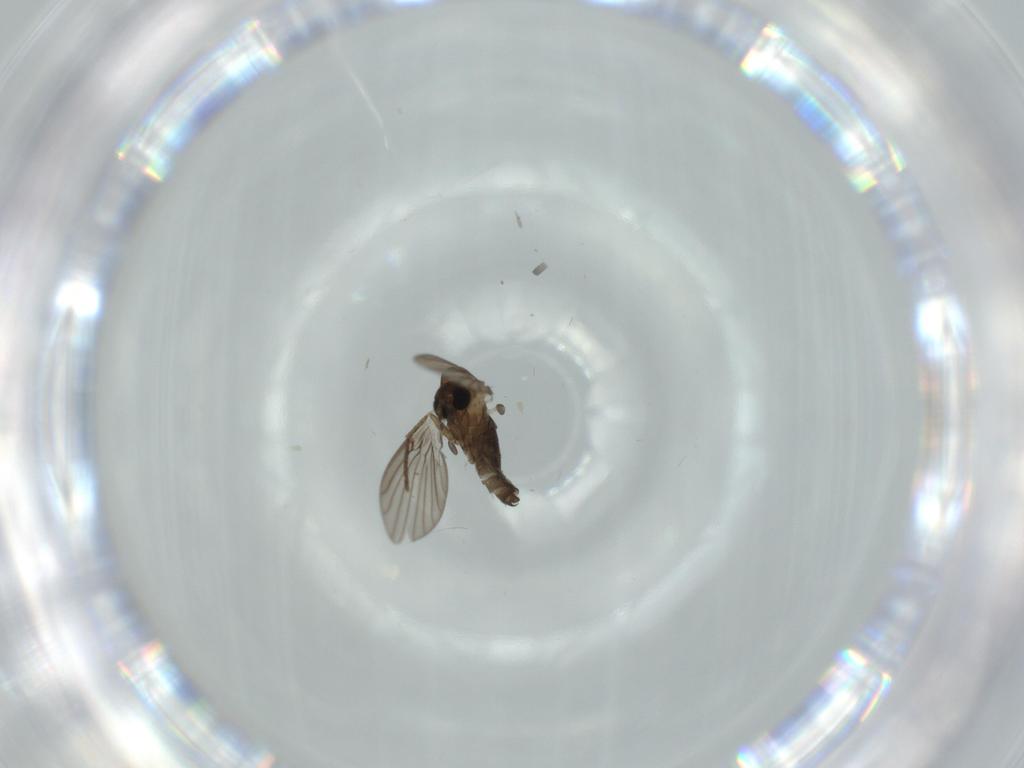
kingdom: Animalia
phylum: Arthropoda
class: Insecta
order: Diptera
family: Psychodidae
